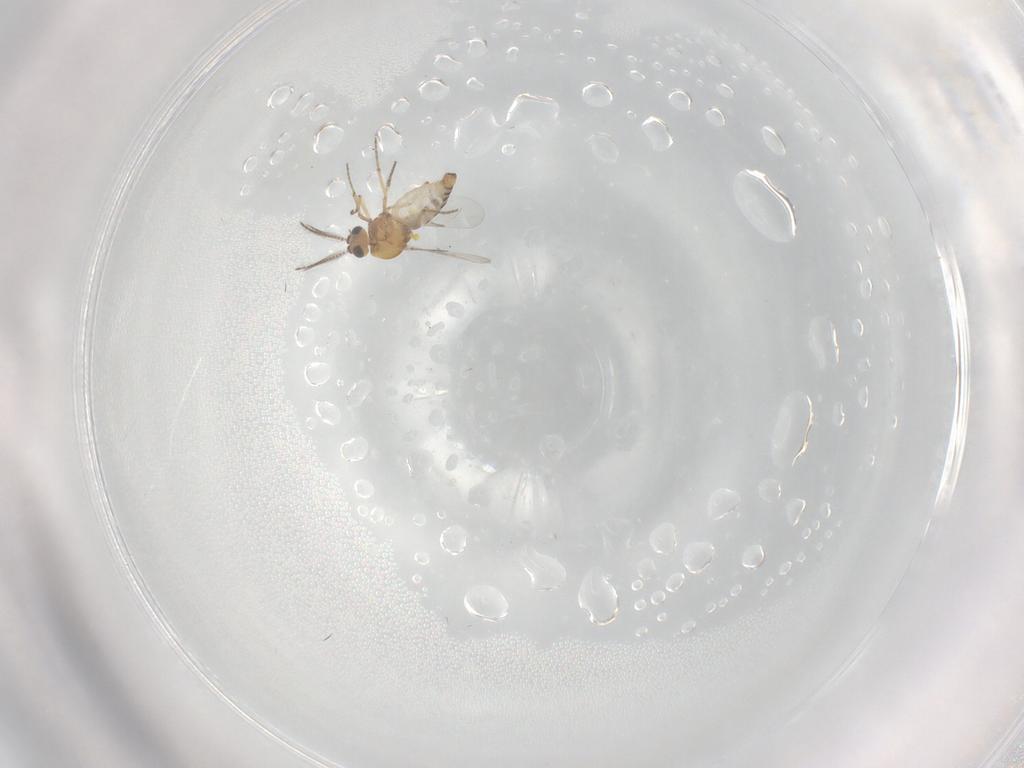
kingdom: Animalia
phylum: Arthropoda
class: Insecta
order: Diptera
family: Ceratopogonidae
